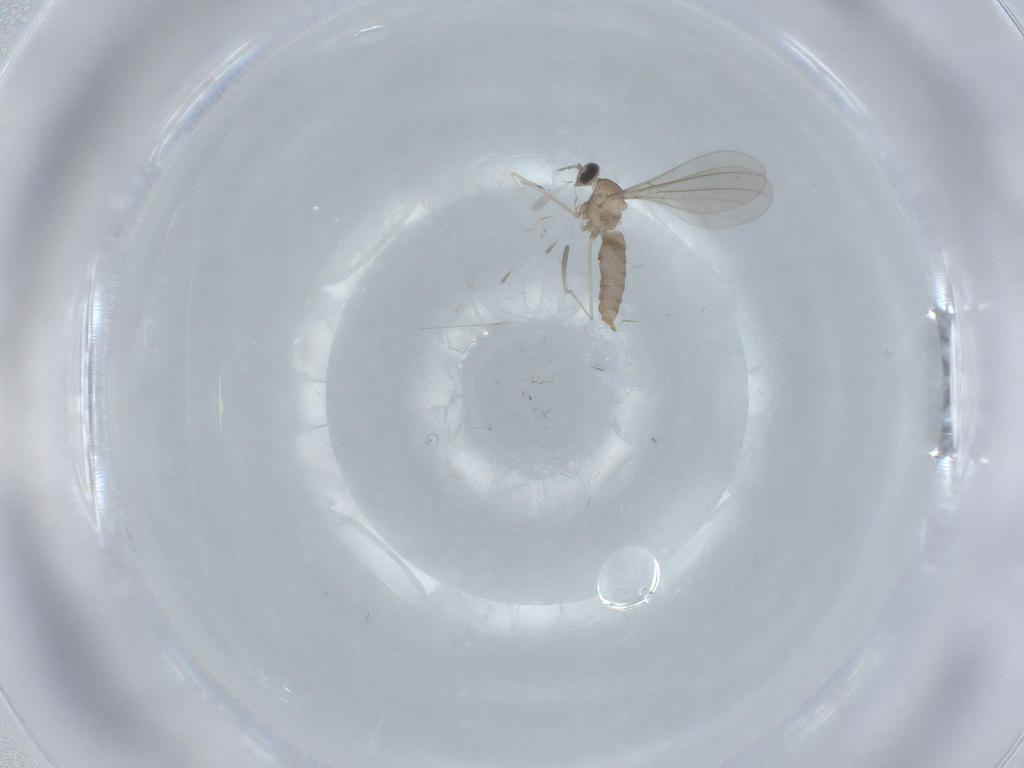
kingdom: Animalia
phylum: Arthropoda
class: Insecta
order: Diptera
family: Cecidomyiidae
